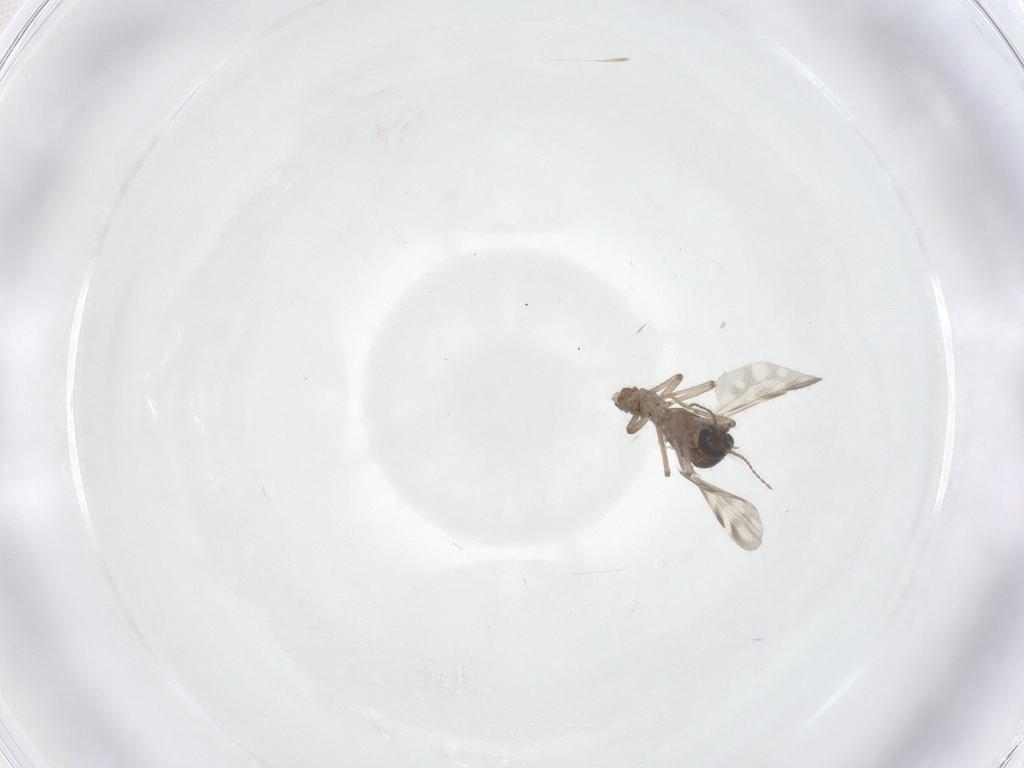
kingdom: Animalia
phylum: Arthropoda
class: Insecta
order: Diptera
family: Ceratopogonidae
